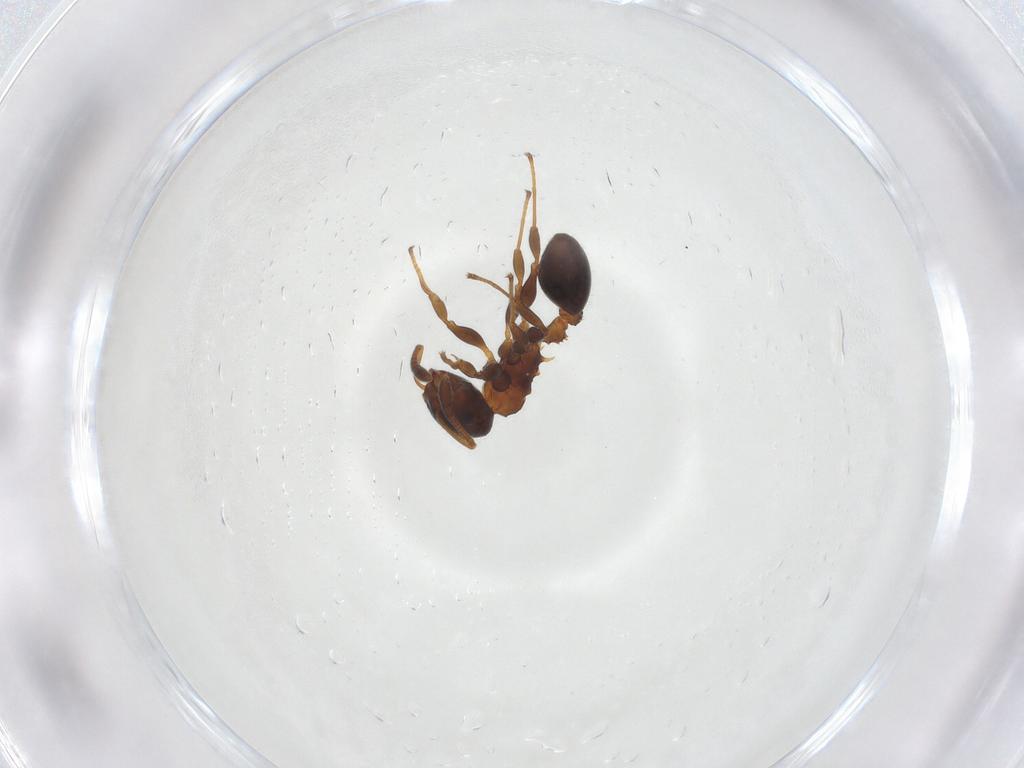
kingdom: Animalia
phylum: Arthropoda
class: Insecta
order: Hymenoptera
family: Formicidae
